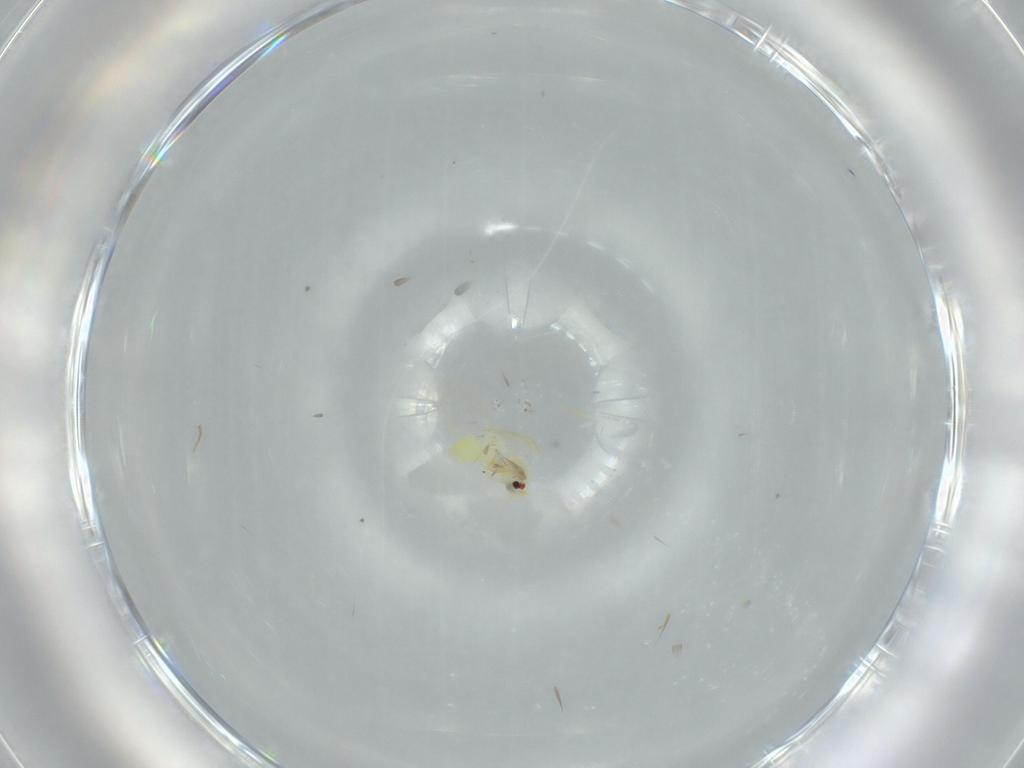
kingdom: Animalia
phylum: Arthropoda
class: Insecta
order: Hemiptera
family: Aleyrodidae
